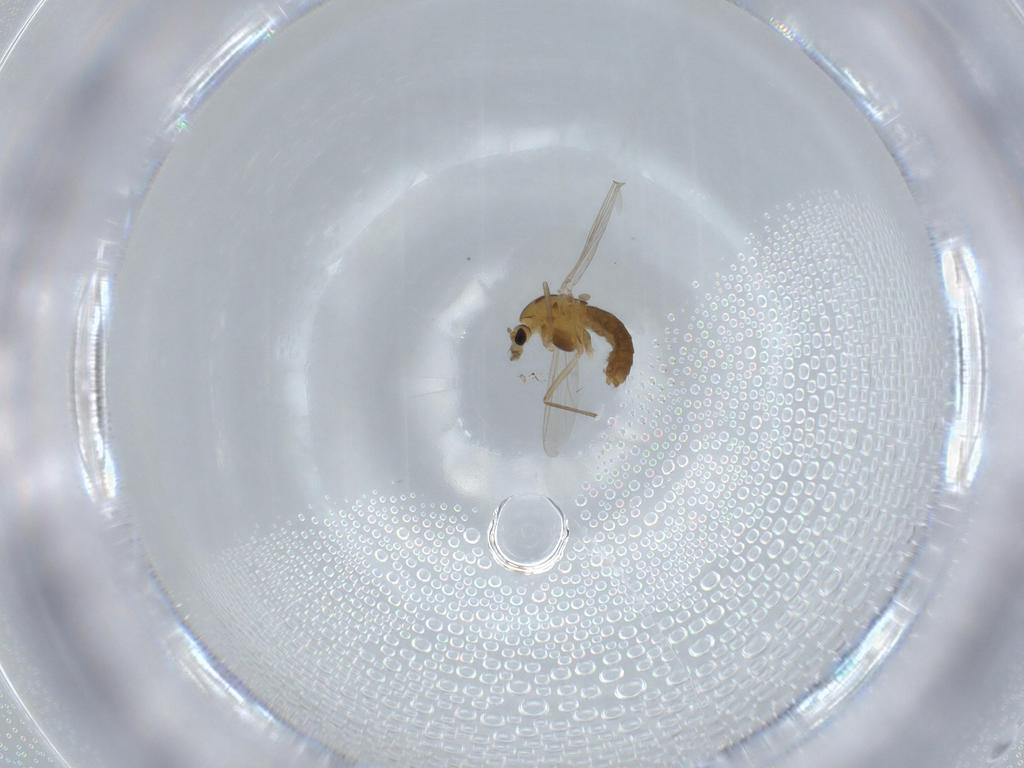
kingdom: Animalia
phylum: Arthropoda
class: Insecta
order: Diptera
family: Chironomidae
